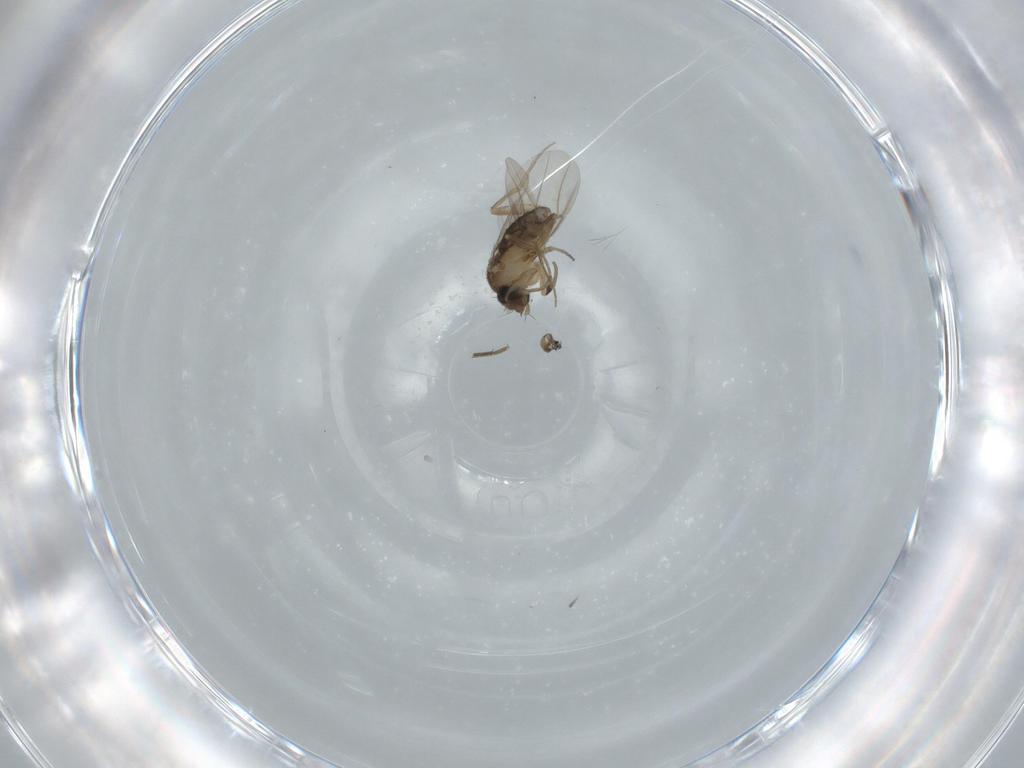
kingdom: Animalia
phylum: Arthropoda
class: Insecta
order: Diptera
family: Phoridae
